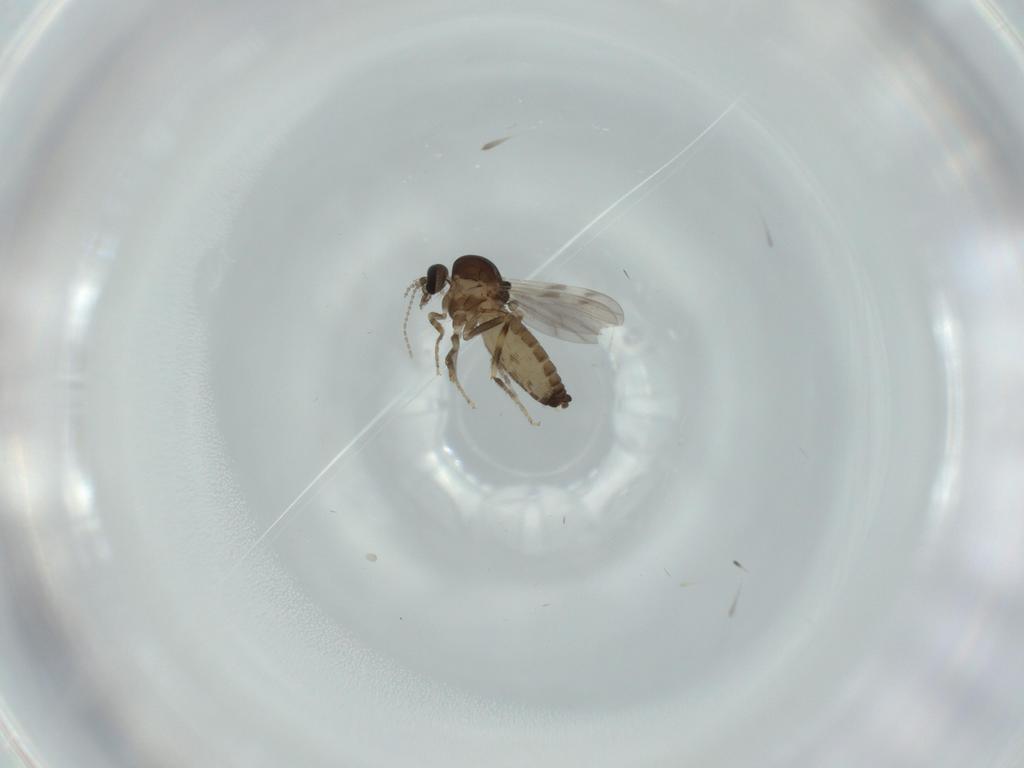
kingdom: Animalia
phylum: Arthropoda
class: Insecta
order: Diptera
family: Ceratopogonidae
